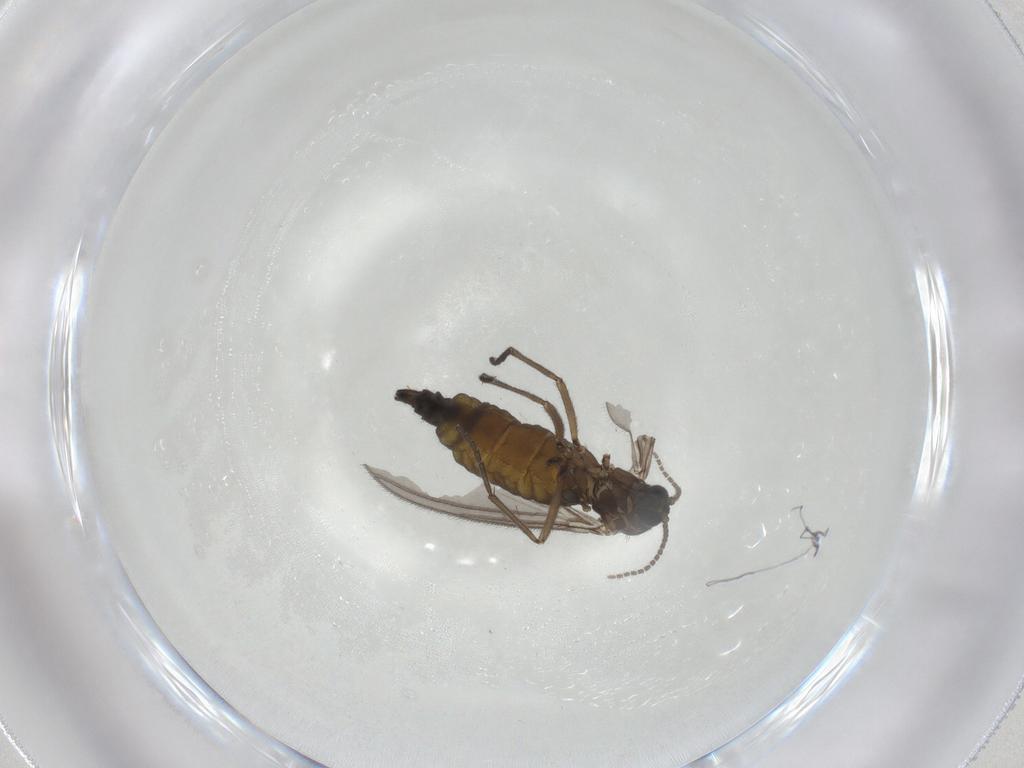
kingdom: Animalia
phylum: Arthropoda
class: Insecta
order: Diptera
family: Sciaridae
